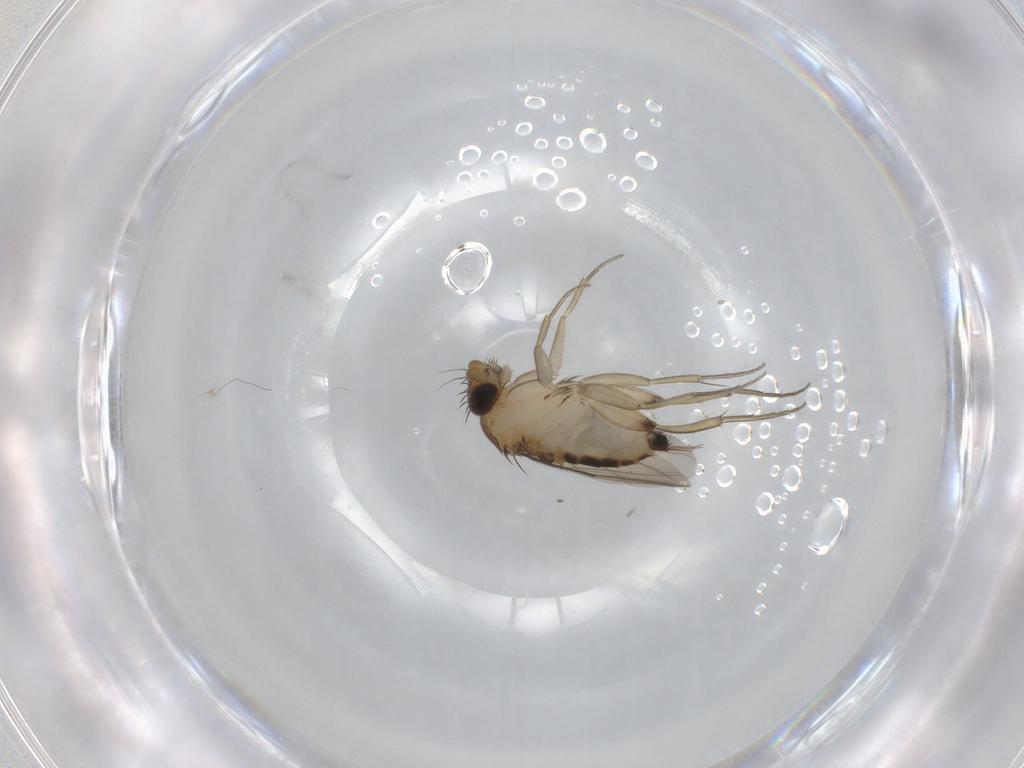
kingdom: Animalia
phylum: Arthropoda
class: Insecta
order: Diptera
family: Phoridae
